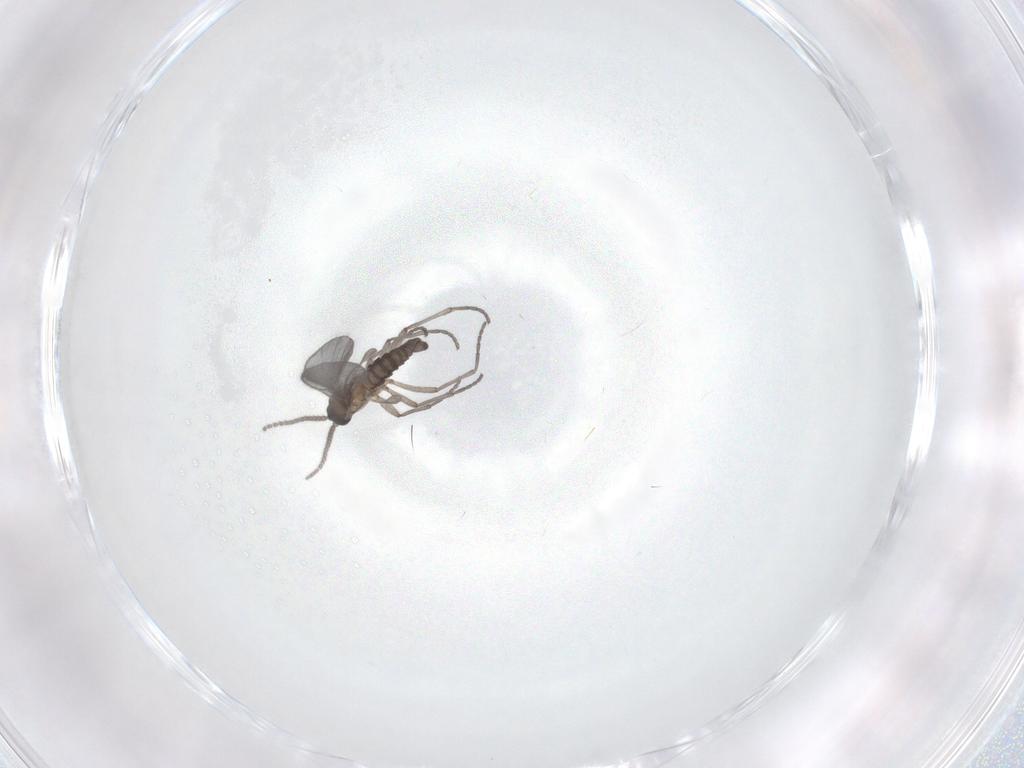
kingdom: Animalia
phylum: Arthropoda
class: Insecta
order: Diptera
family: Sciaridae
